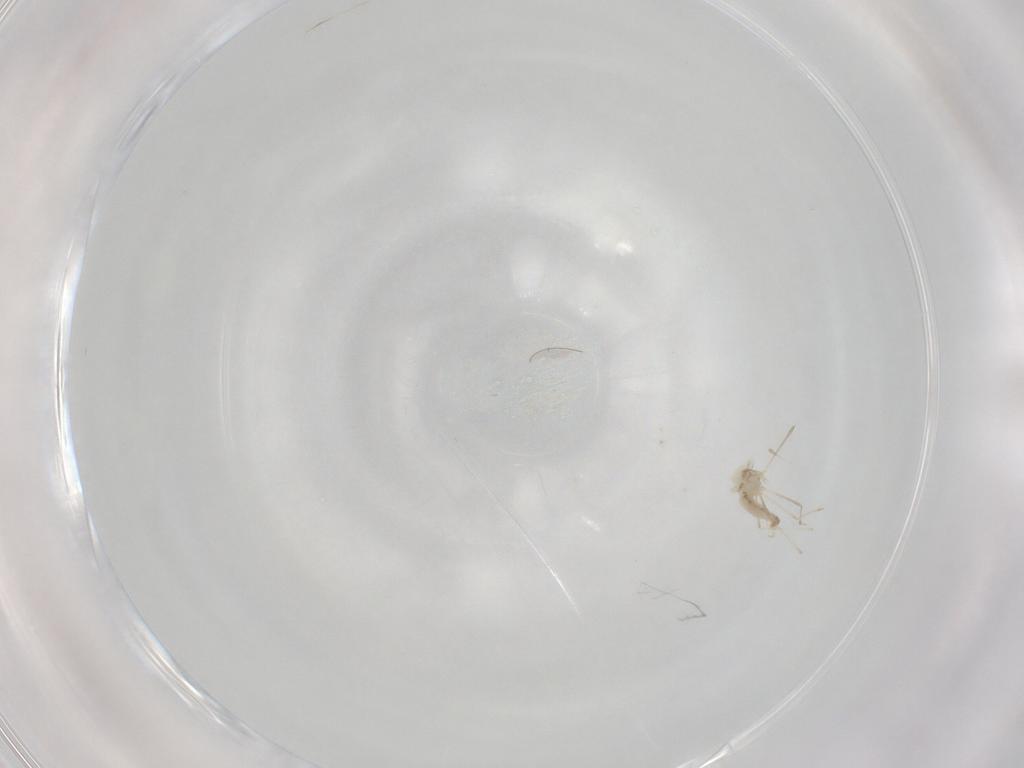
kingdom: Animalia
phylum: Arthropoda
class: Insecta
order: Diptera
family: Cecidomyiidae
